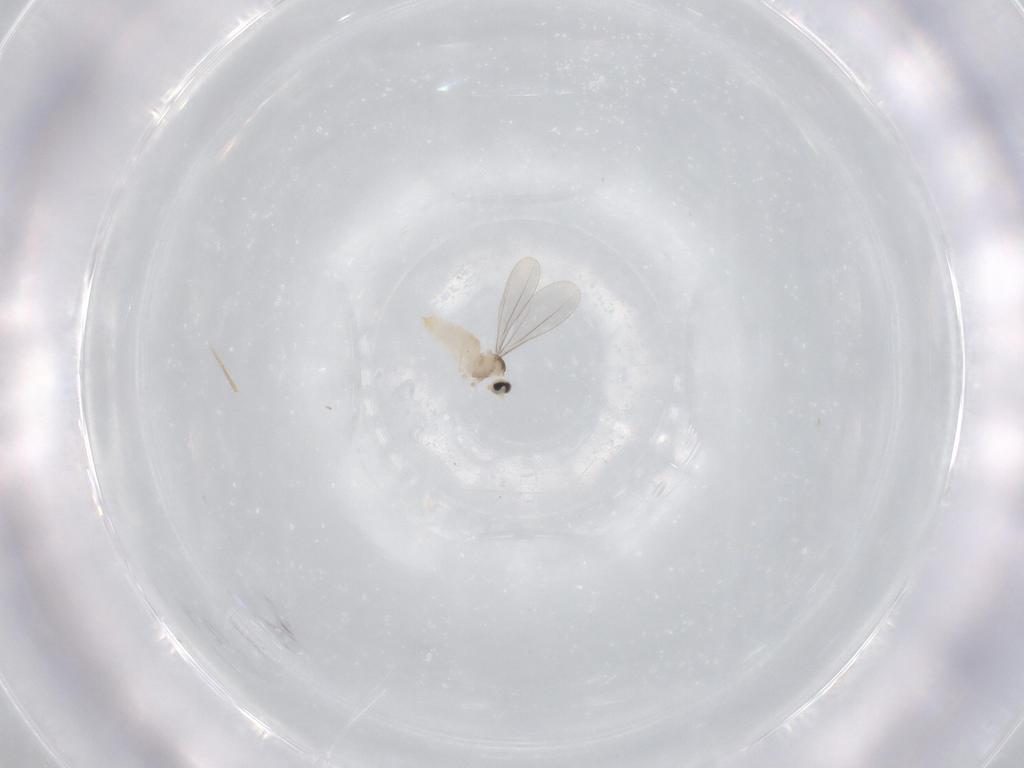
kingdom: Animalia
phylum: Arthropoda
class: Insecta
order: Diptera
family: Cecidomyiidae
